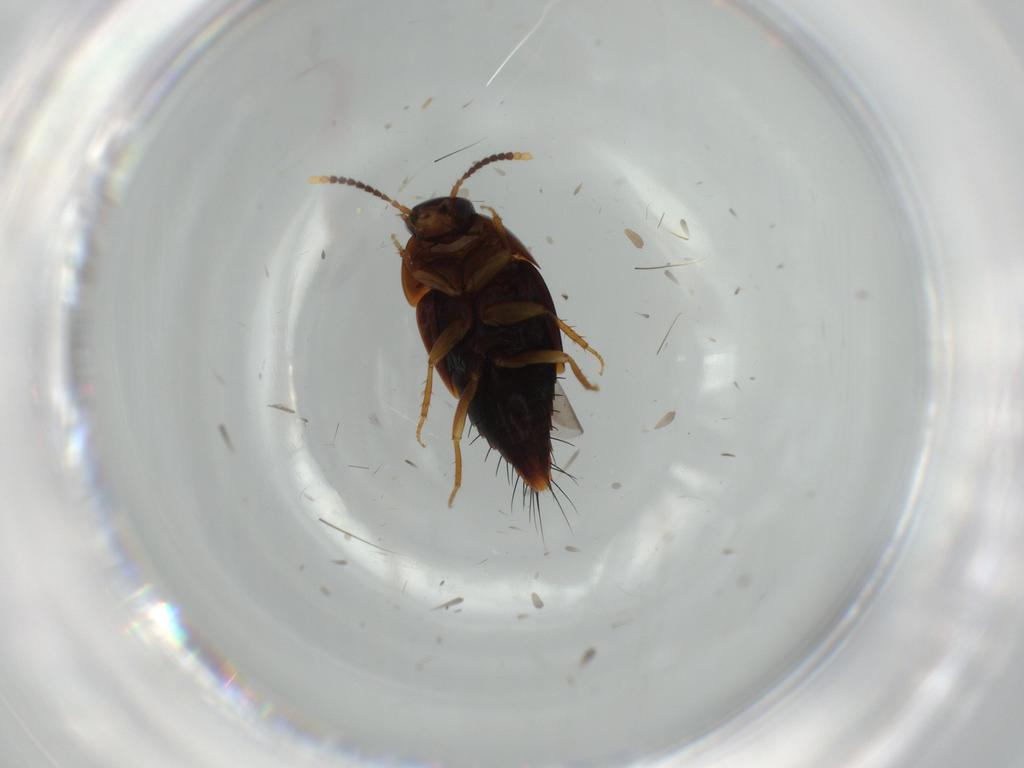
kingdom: Animalia
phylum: Arthropoda
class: Insecta
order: Coleoptera
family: Staphylinidae
